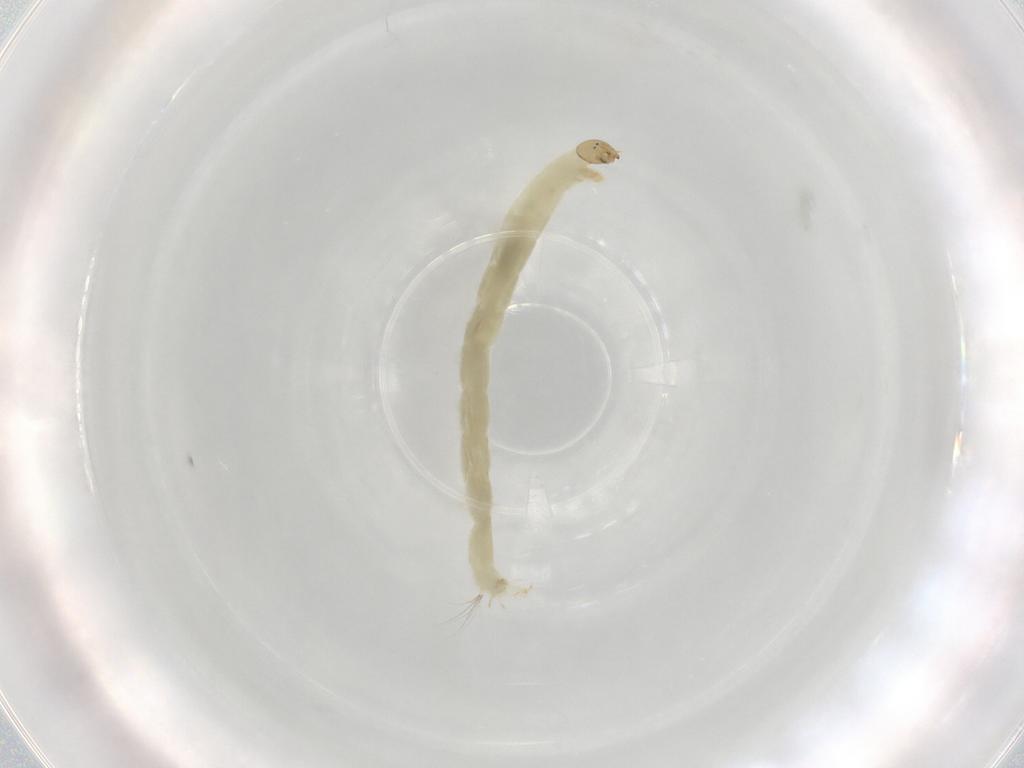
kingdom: Animalia
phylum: Arthropoda
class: Insecta
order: Diptera
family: Chironomidae
